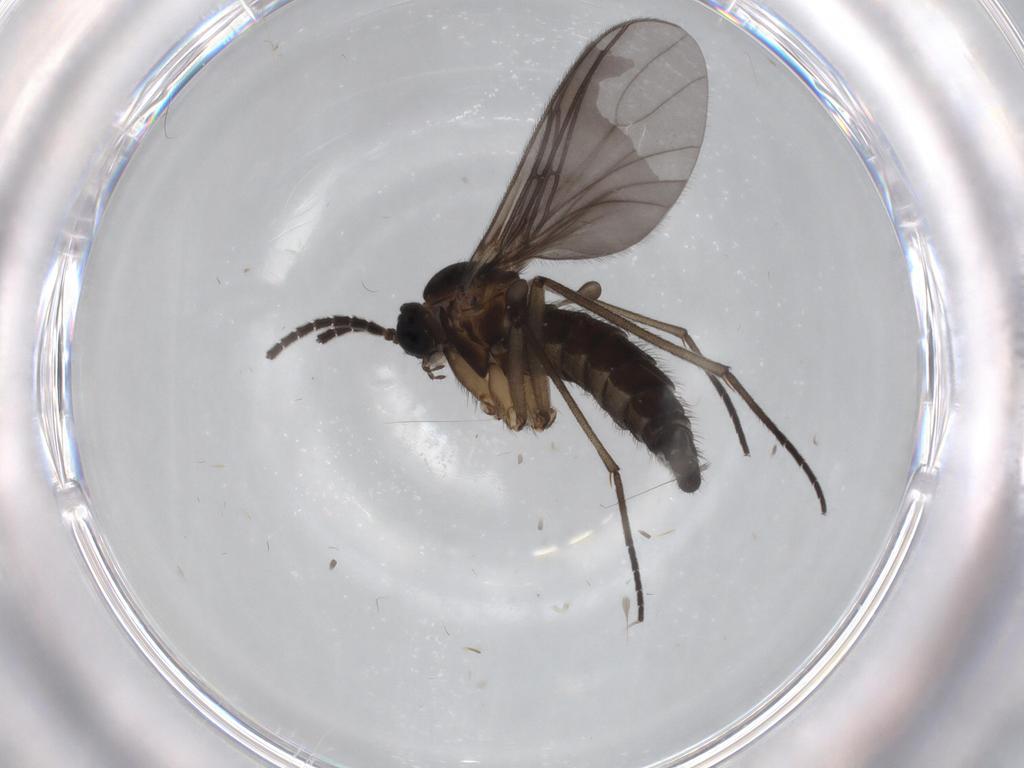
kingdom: Animalia
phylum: Arthropoda
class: Insecta
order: Diptera
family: Sciaridae
